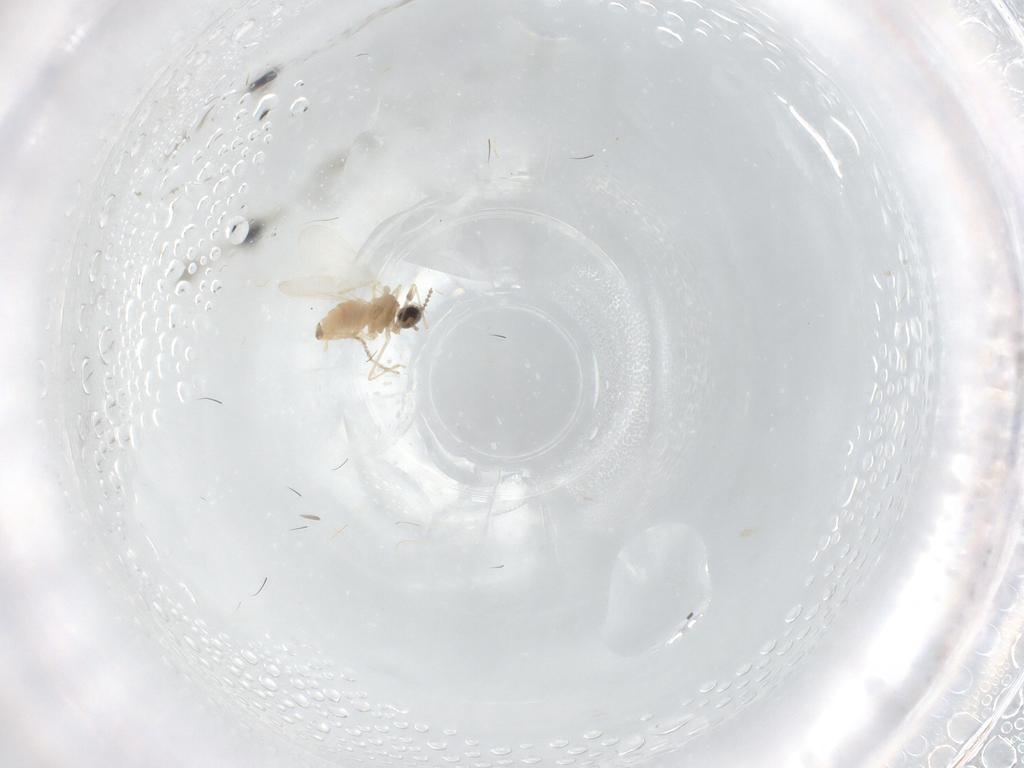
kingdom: Animalia
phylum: Arthropoda
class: Insecta
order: Diptera
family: Cecidomyiidae
